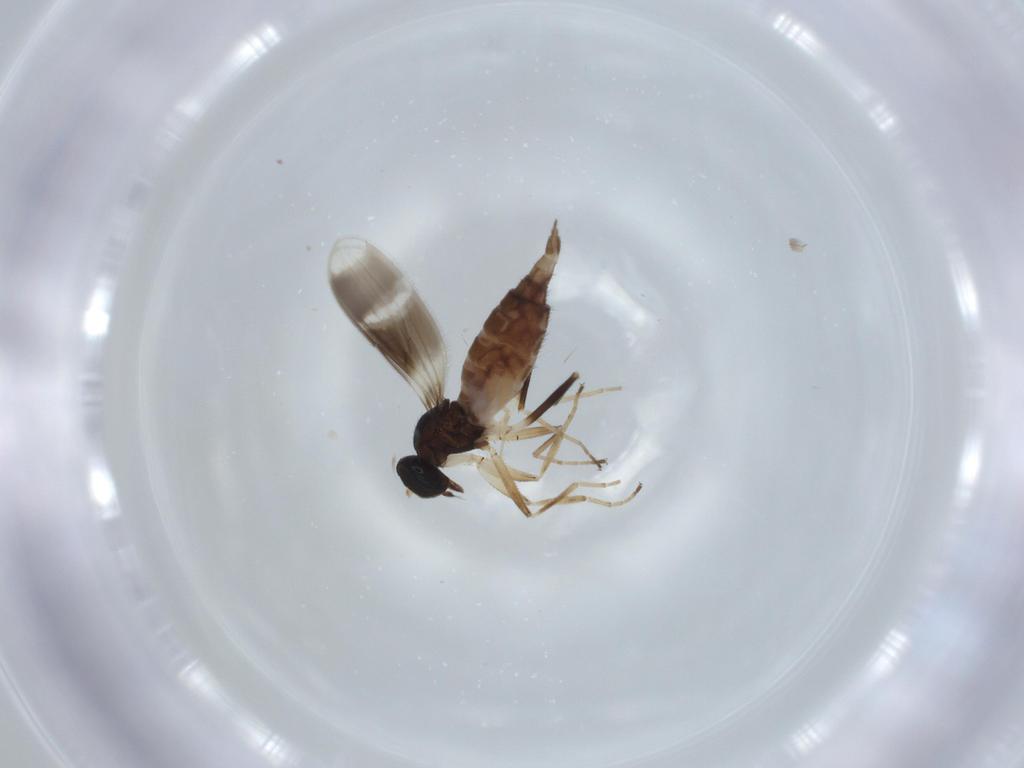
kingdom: Animalia
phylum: Arthropoda
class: Insecta
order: Diptera
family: Hybotidae
